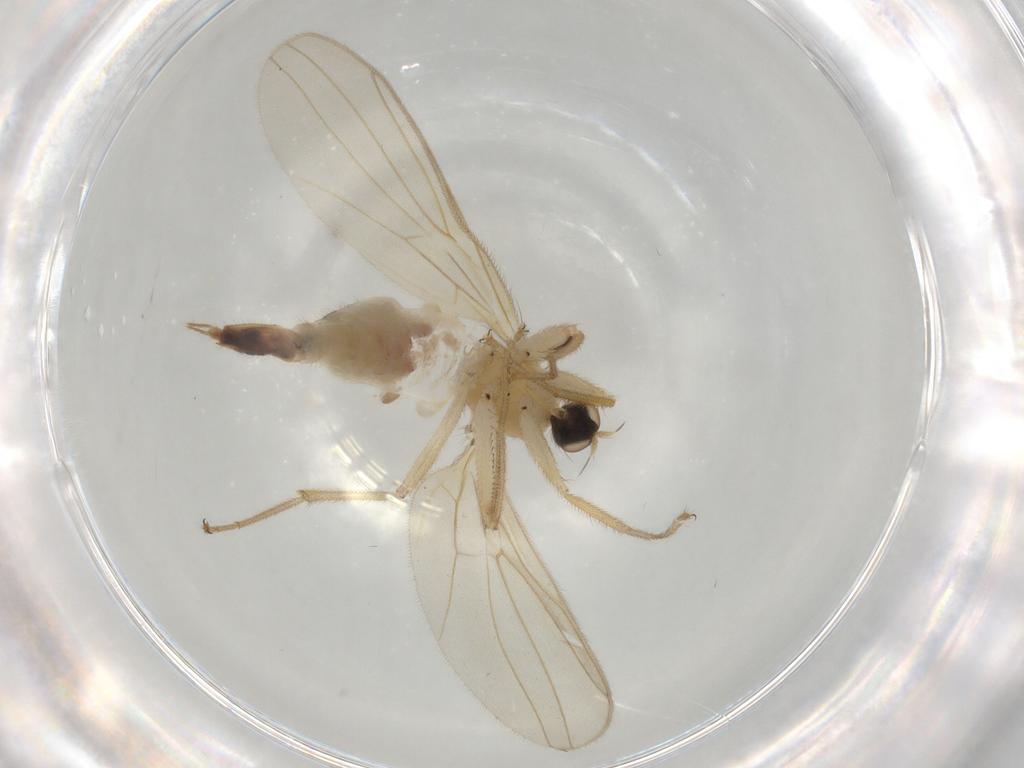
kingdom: Animalia
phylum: Arthropoda
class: Insecta
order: Diptera
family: Hybotidae
